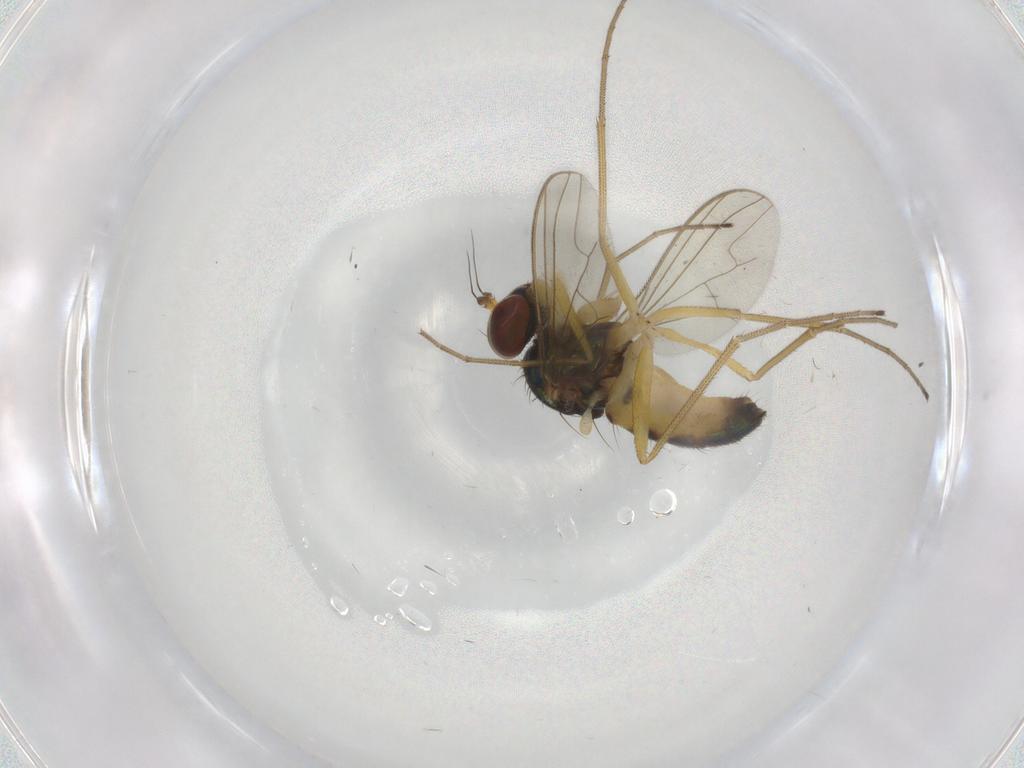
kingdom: Animalia
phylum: Arthropoda
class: Insecta
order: Diptera
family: Dolichopodidae
